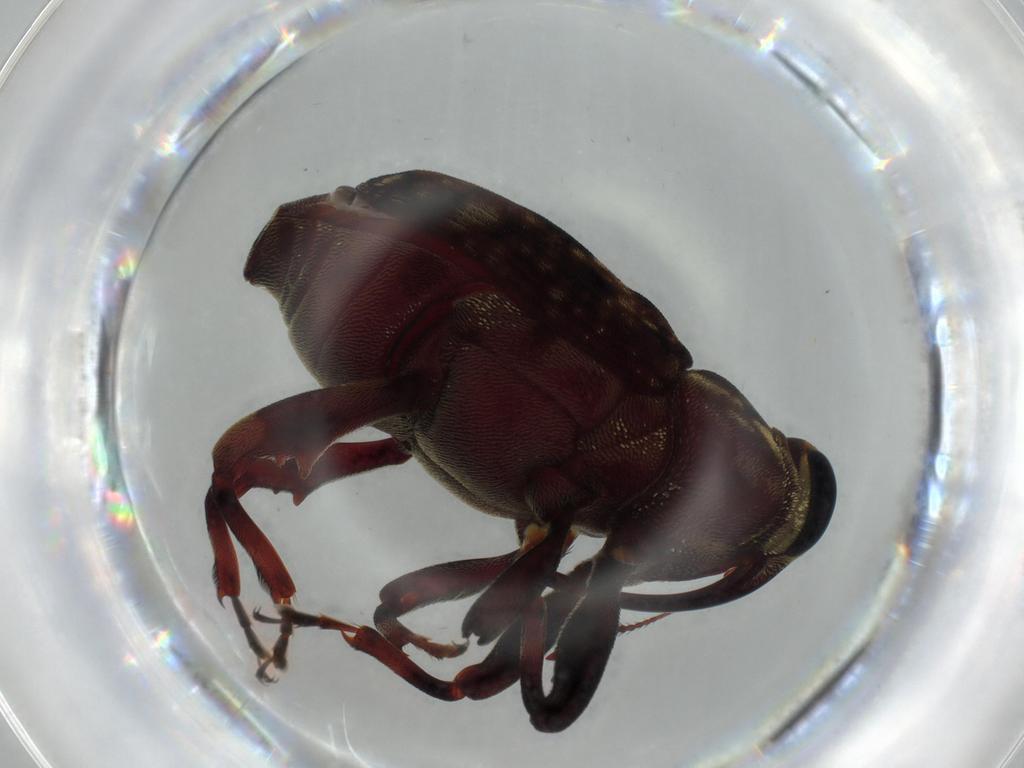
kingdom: Animalia
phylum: Arthropoda
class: Insecta
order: Coleoptera
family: Curculionidae
